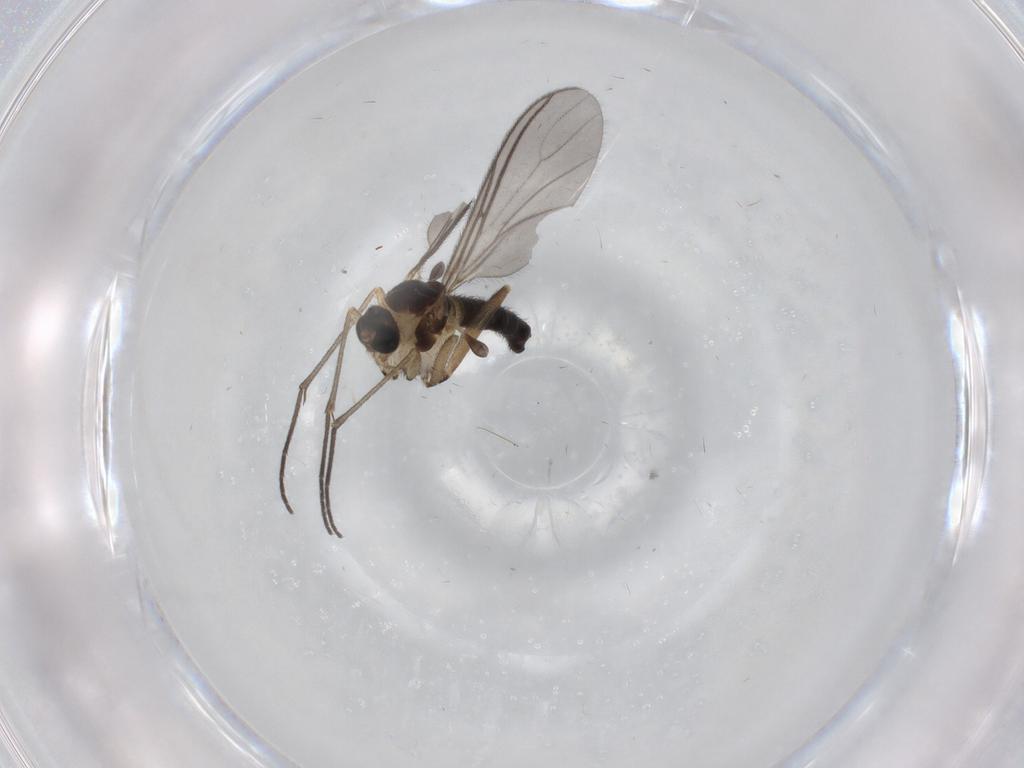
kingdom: Animalia
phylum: Arthropoda
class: Insecta
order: Diptera
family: Sciaridae
